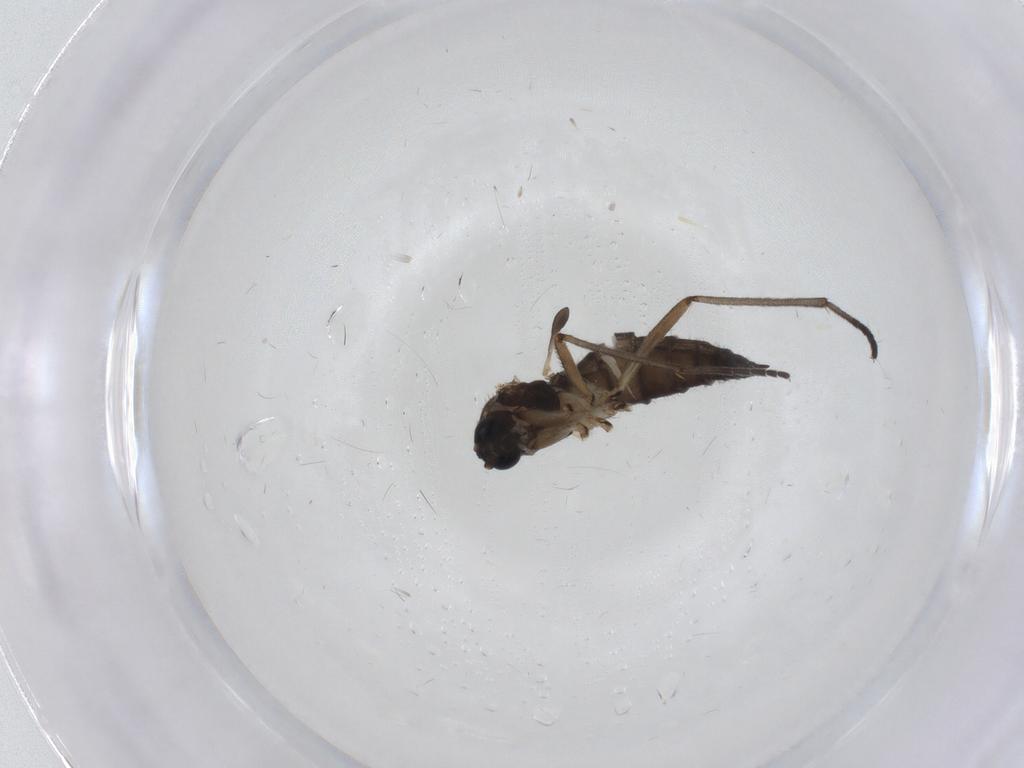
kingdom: Animalia
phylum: Arthropoda
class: Insecta
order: Diptera
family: Sciaridae
